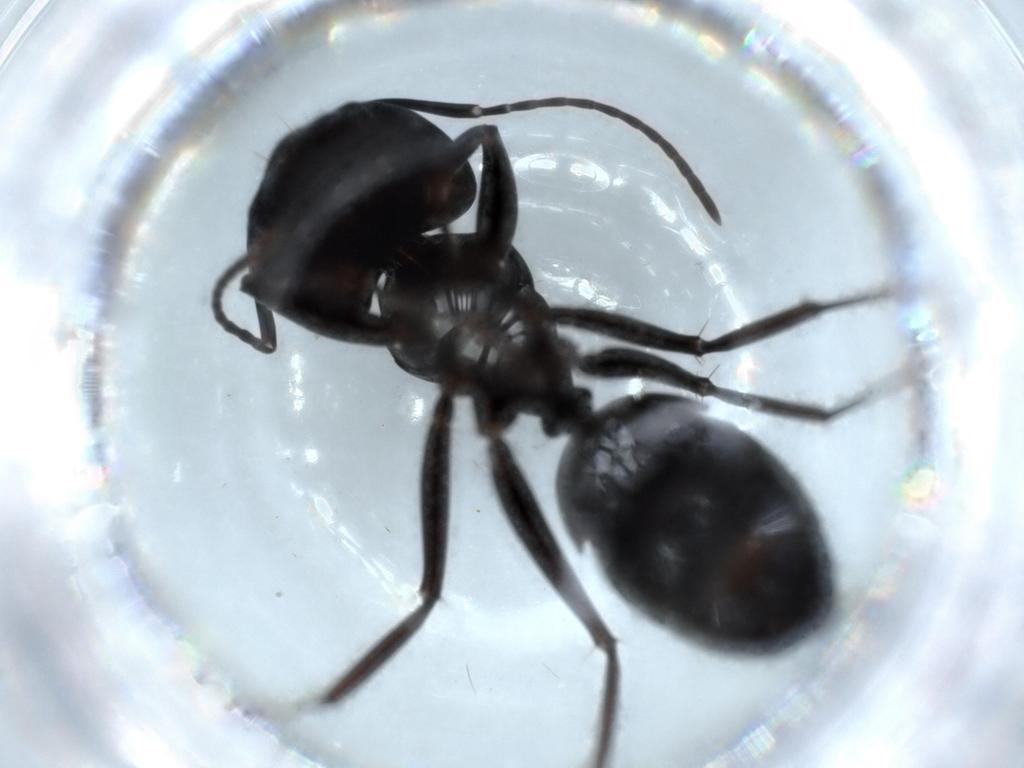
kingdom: Animalia
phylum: Arthropoda
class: Insecta
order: Hymenoptera
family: Formicidae
